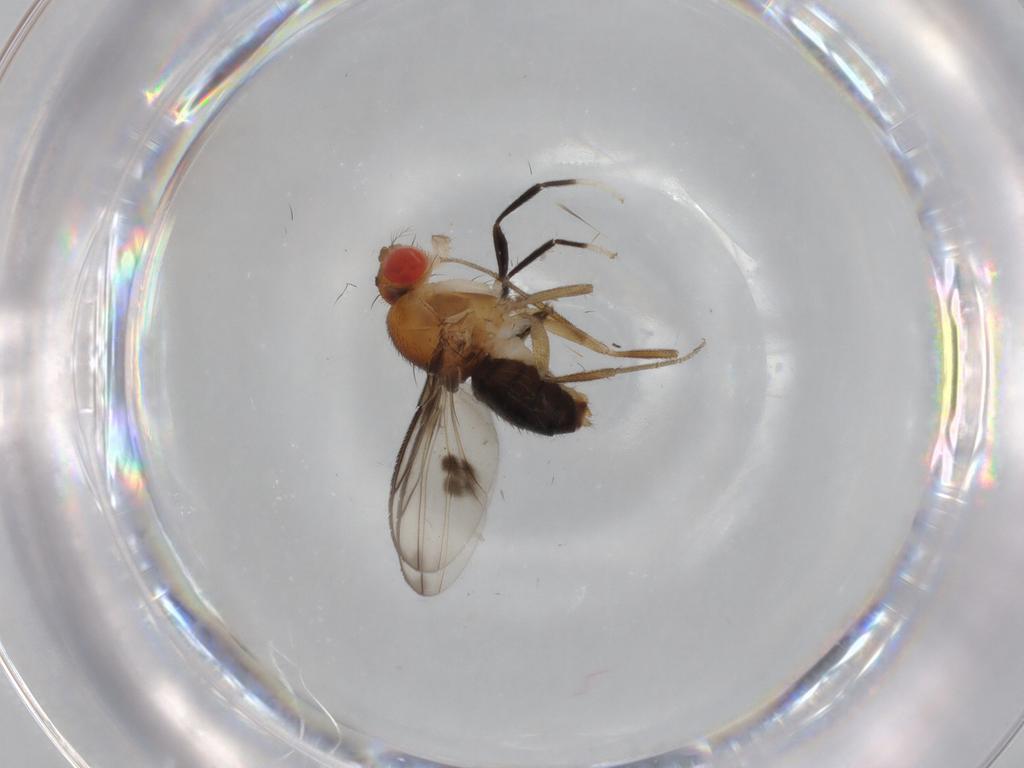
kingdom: Animalia
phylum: Arthropoda
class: Insecta
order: Diptera
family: Drosophilidae
